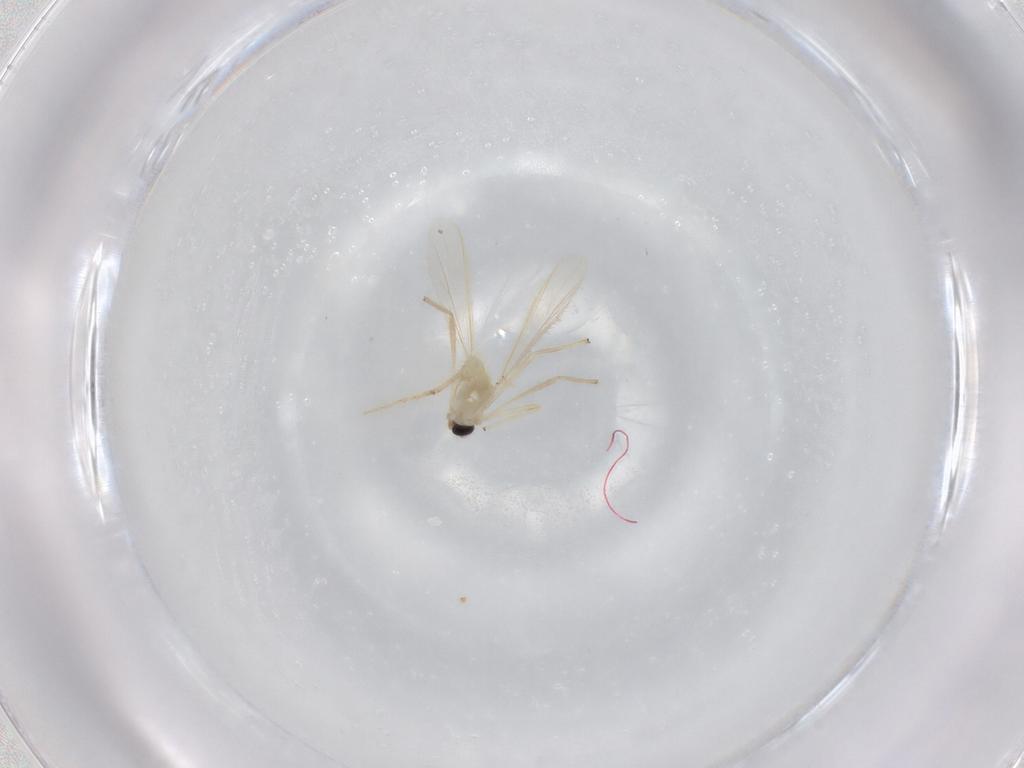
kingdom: Animalia
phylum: Arthropoda
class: Insecta
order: Diptera
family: Chironomidae
